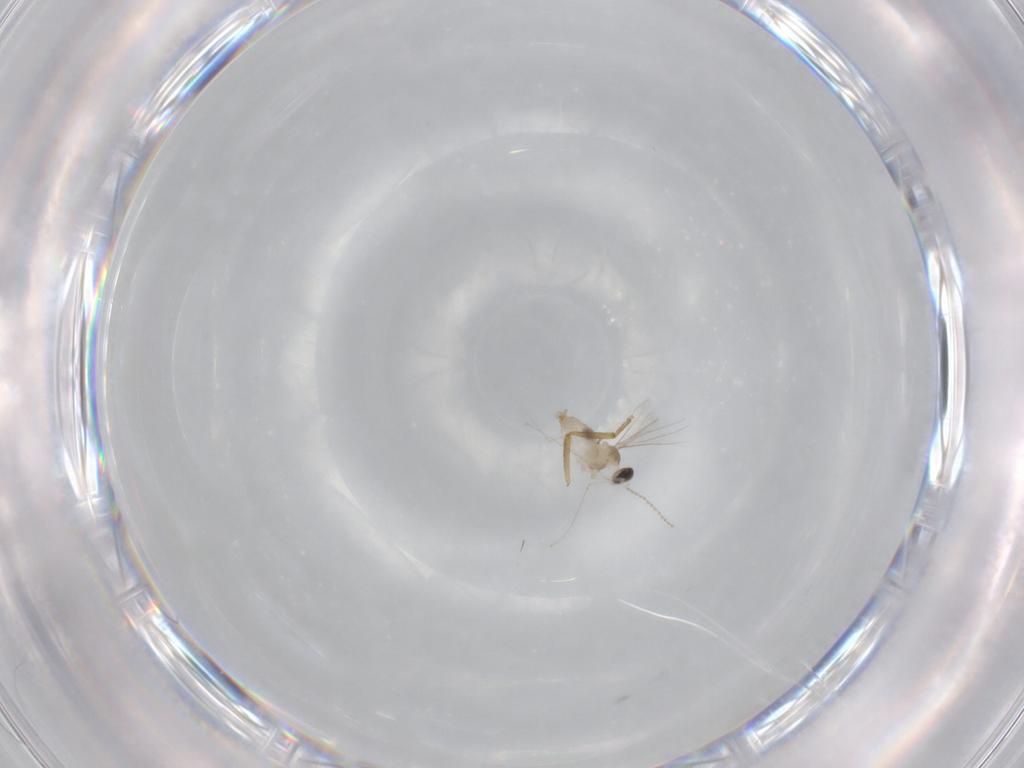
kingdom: Animalia
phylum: Arthropoda
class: Insecta
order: Diptera
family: Cecidomyiidae
